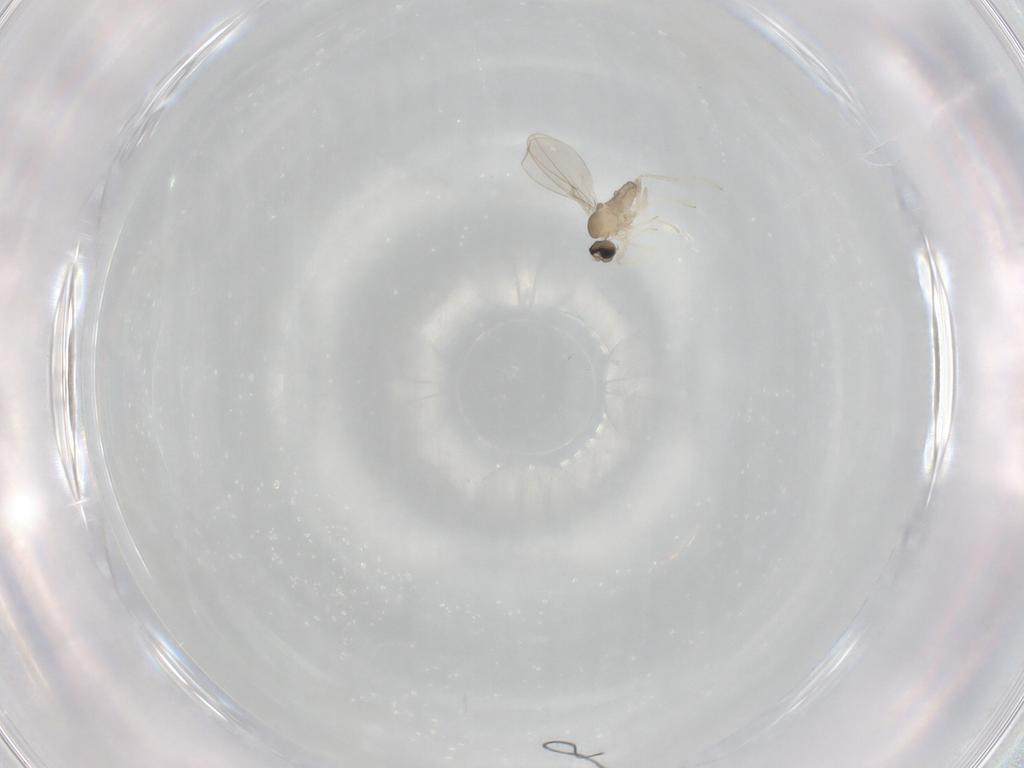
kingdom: Animalia
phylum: Arthropoda
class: Insecta
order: Diptera
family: Cecidomyiidae
